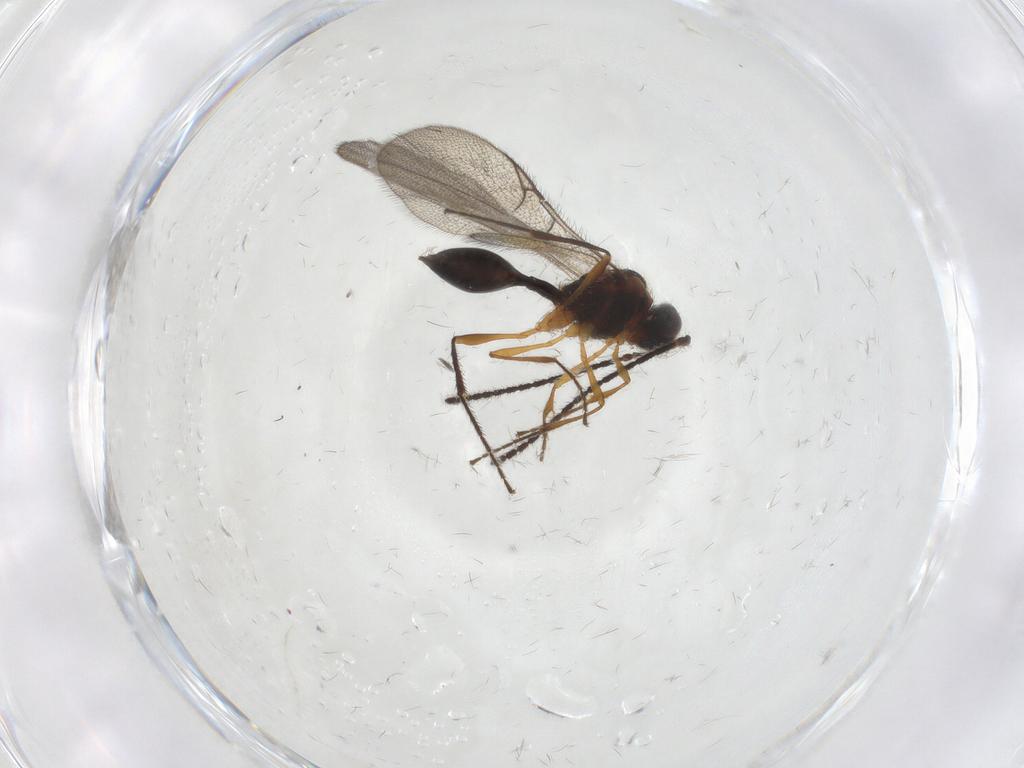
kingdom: Animalia
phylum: Arthropoda
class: Insecta
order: Hymenoptera
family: Diapriidae
